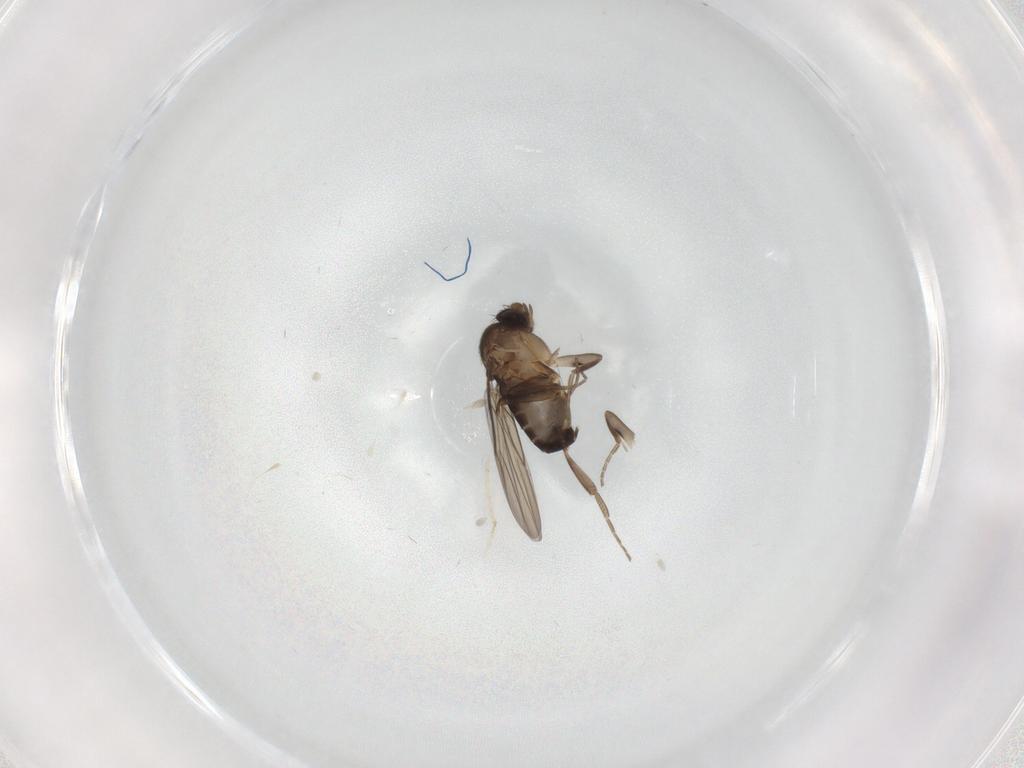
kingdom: Animalia
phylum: Arthropoda
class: Insecta
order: Diptera
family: Phoridae
